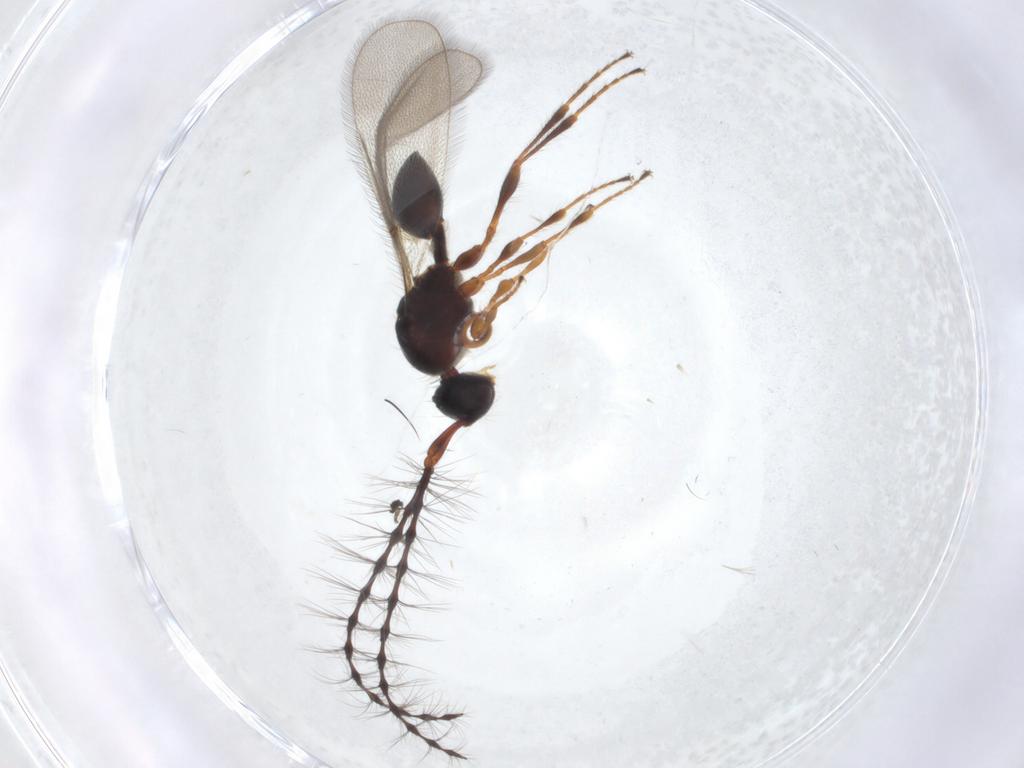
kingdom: Animalia
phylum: Arthropoda
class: Insecta
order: Hymenoptera
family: Diapriidae
